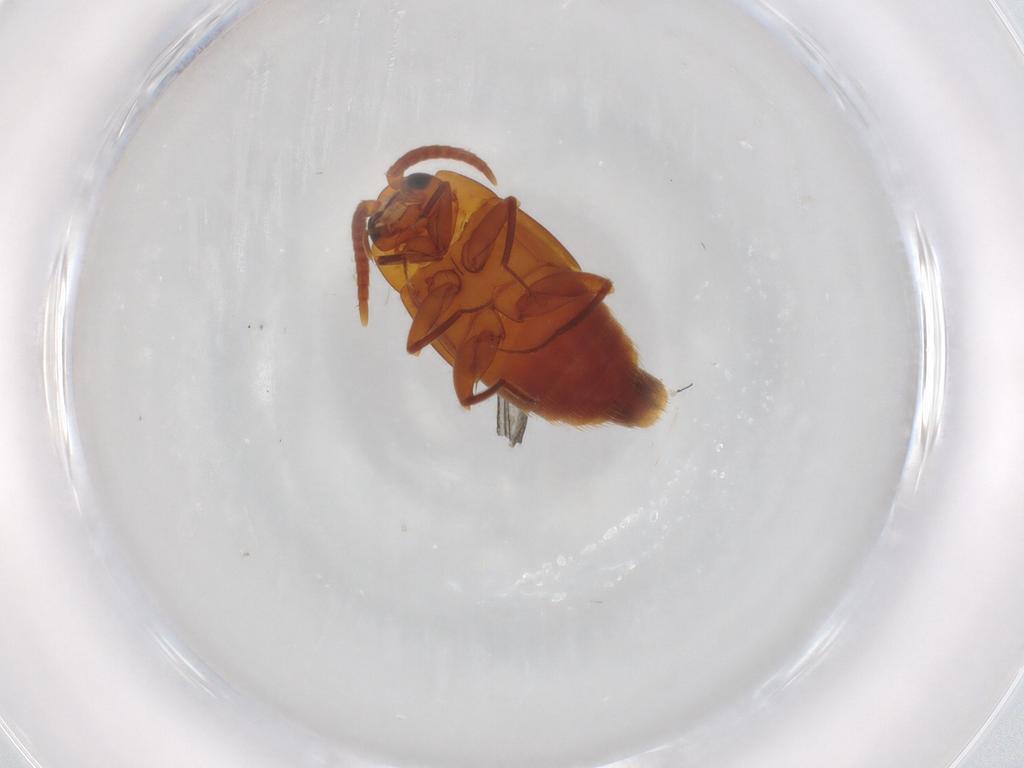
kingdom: Animalia
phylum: Arthropoda
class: Insecta
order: Coleoptera
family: Staphylinidae
